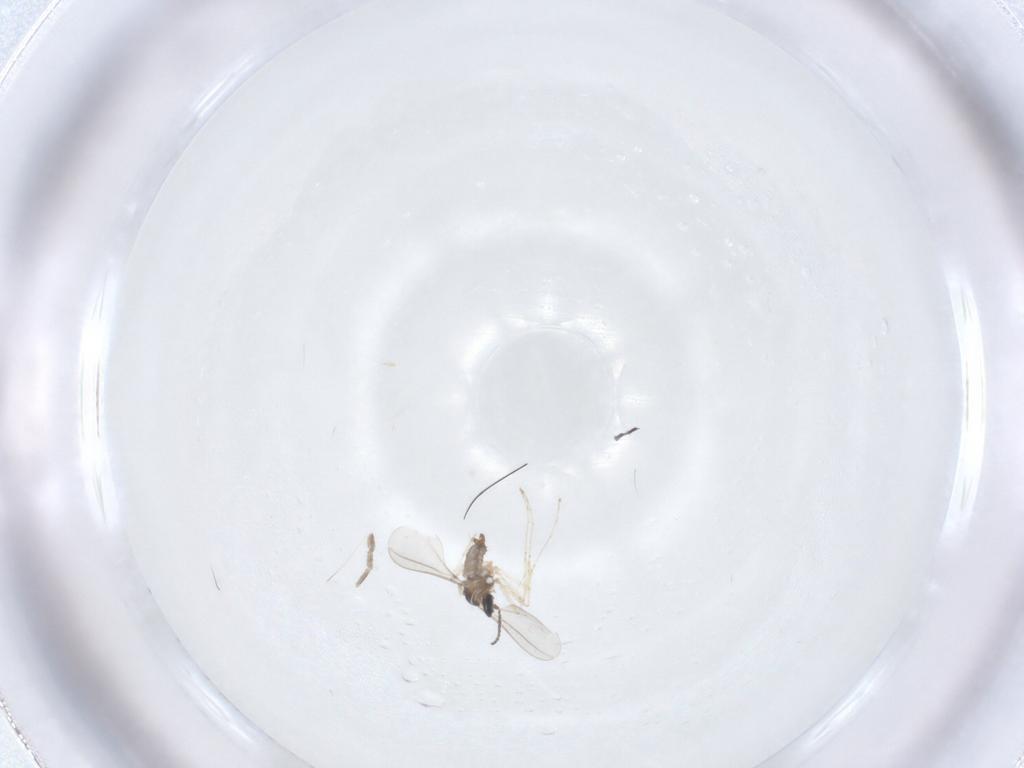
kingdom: Animalia
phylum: Arthropoda
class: Insecta
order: Diptera
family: Cecidomyiidae
